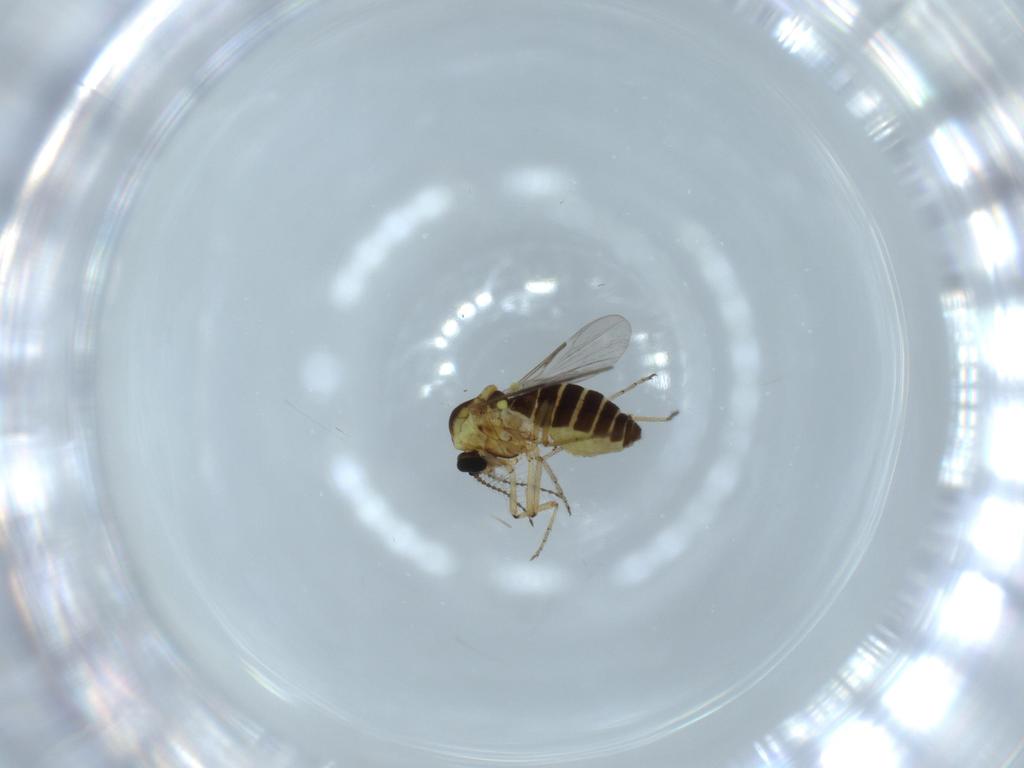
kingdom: Animalia
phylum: Arthropoda
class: Insecta
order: Diptera
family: Ceratopogonidae
